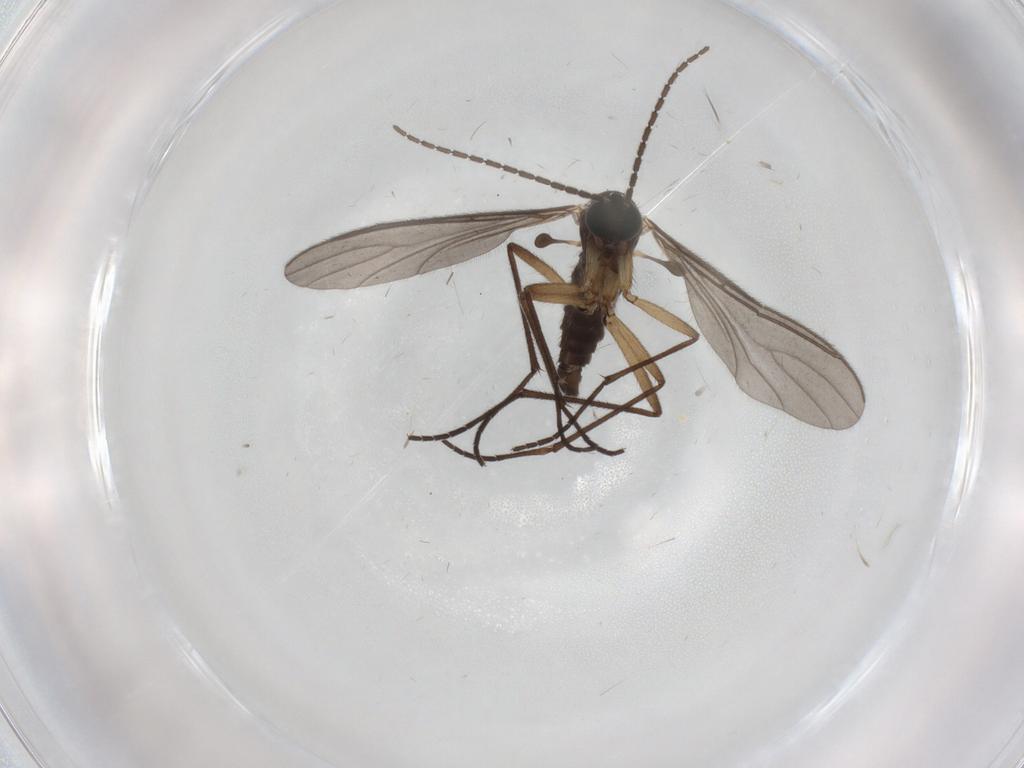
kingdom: Animalia
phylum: Arthropoda
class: Insecta
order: Diptera
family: Sciaridae
